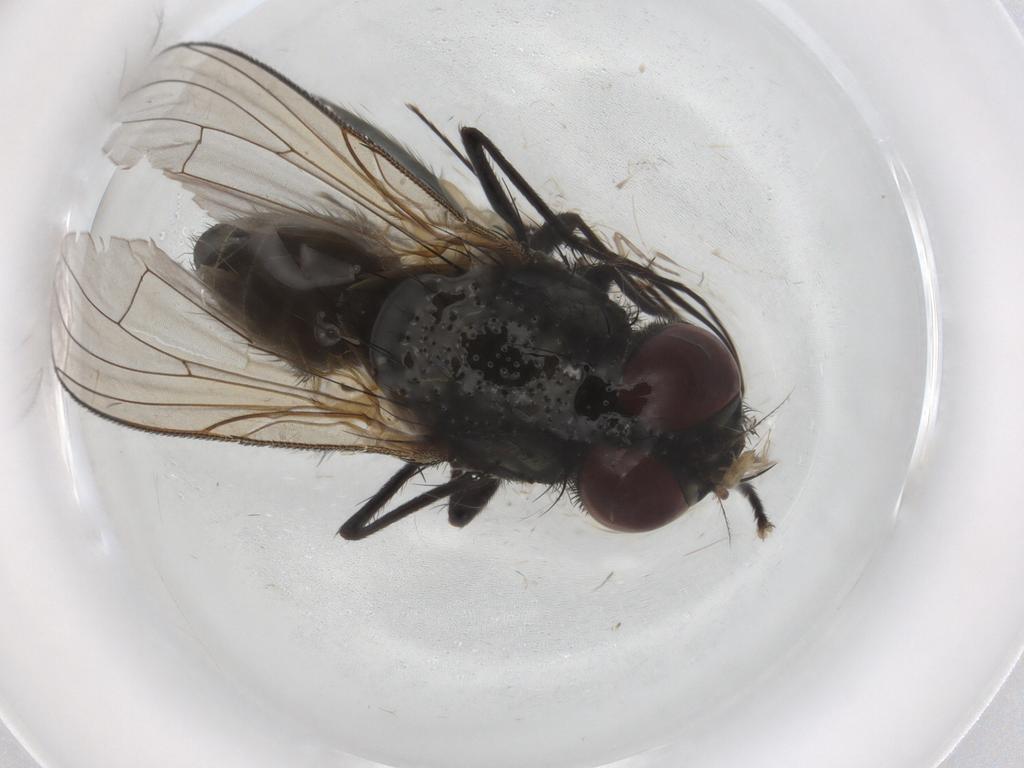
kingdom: Animalia
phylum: Arthropoda
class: Insecta
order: Diptera
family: Muscidae
